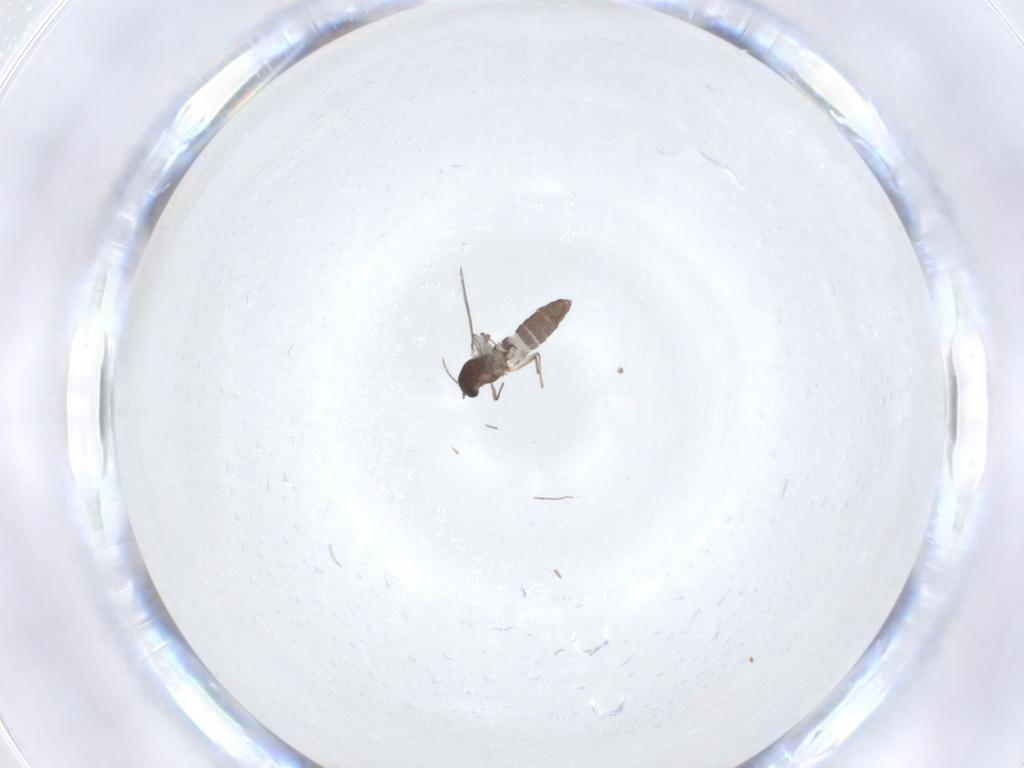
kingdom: Animalia
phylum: Arthropoda
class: Insecta
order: Diptera
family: Chironomidae
